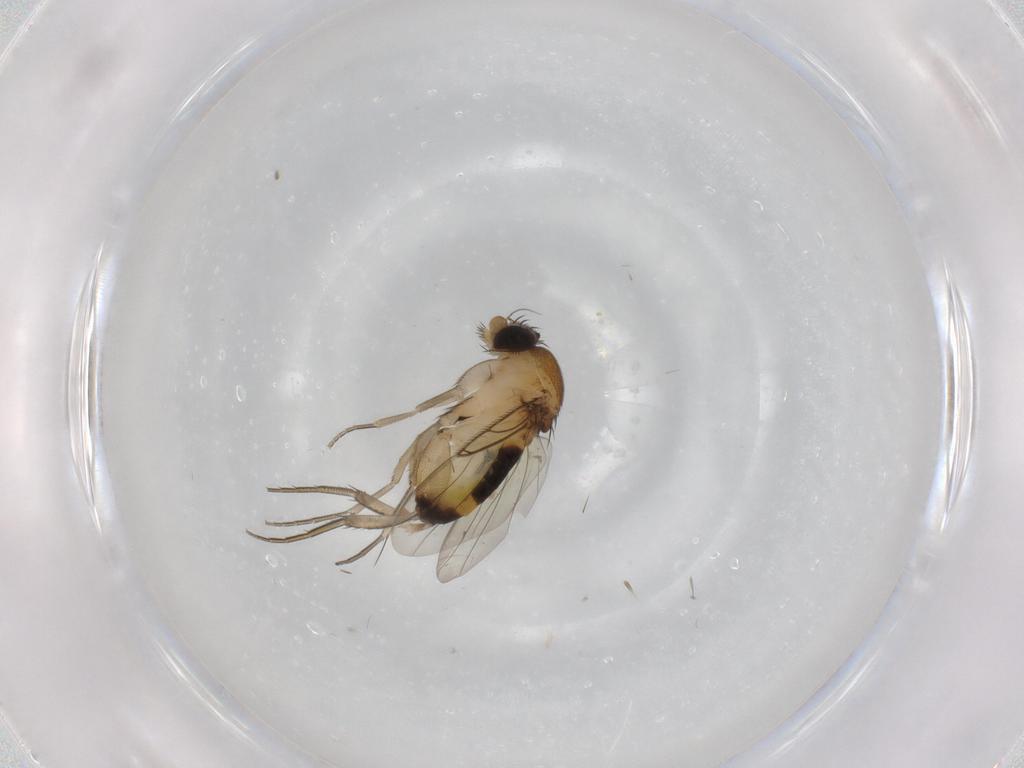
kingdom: Animalia
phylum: Arthropoda
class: Insecta
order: Diptera
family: Phoridae
